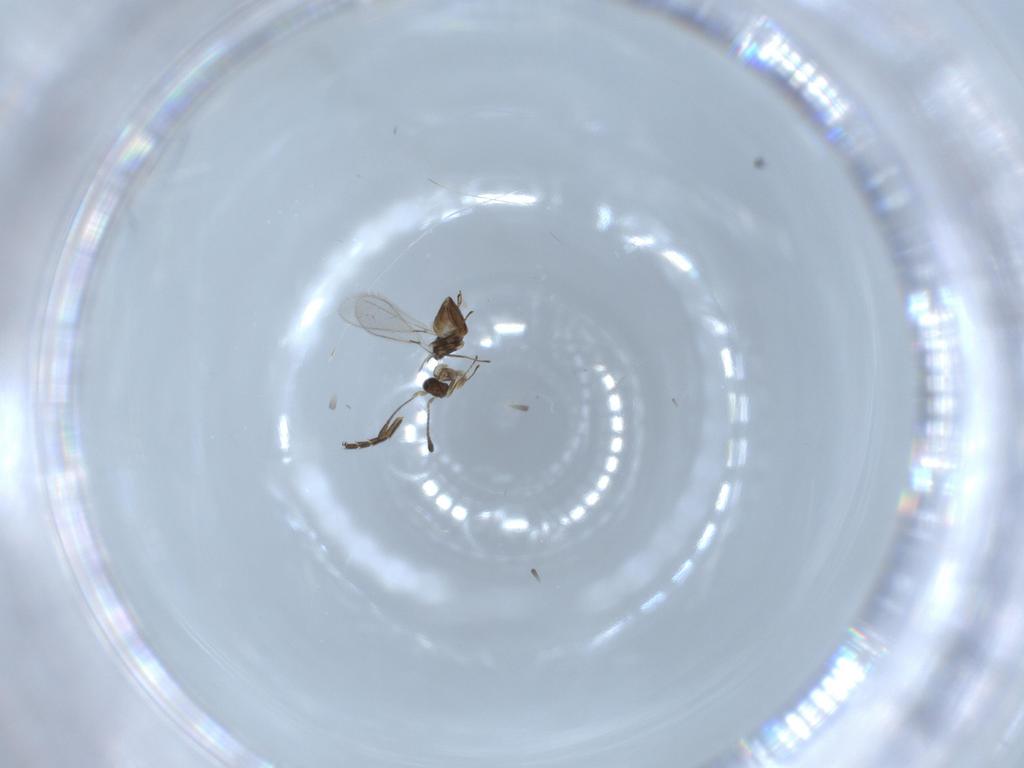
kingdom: Animalia
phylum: Arthropoda
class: Insecta
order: Hymenoptera
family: Mymaridae
